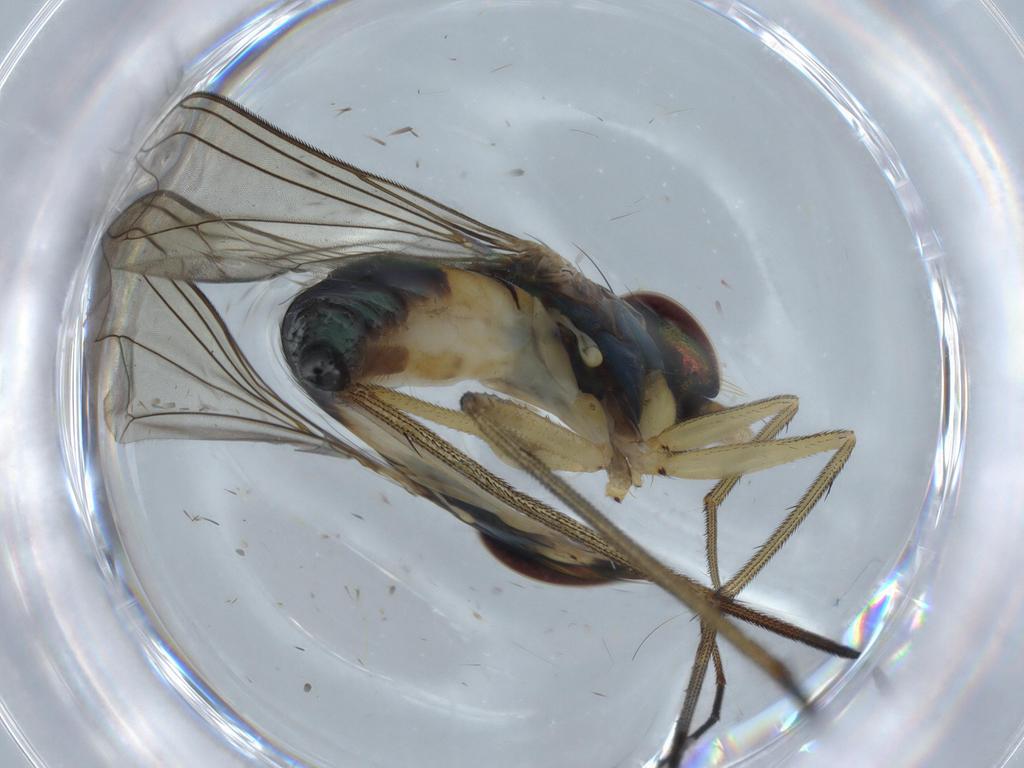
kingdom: Animalia
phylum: Arthropoda
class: Insecta
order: Diptera
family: Dolichopodidae
